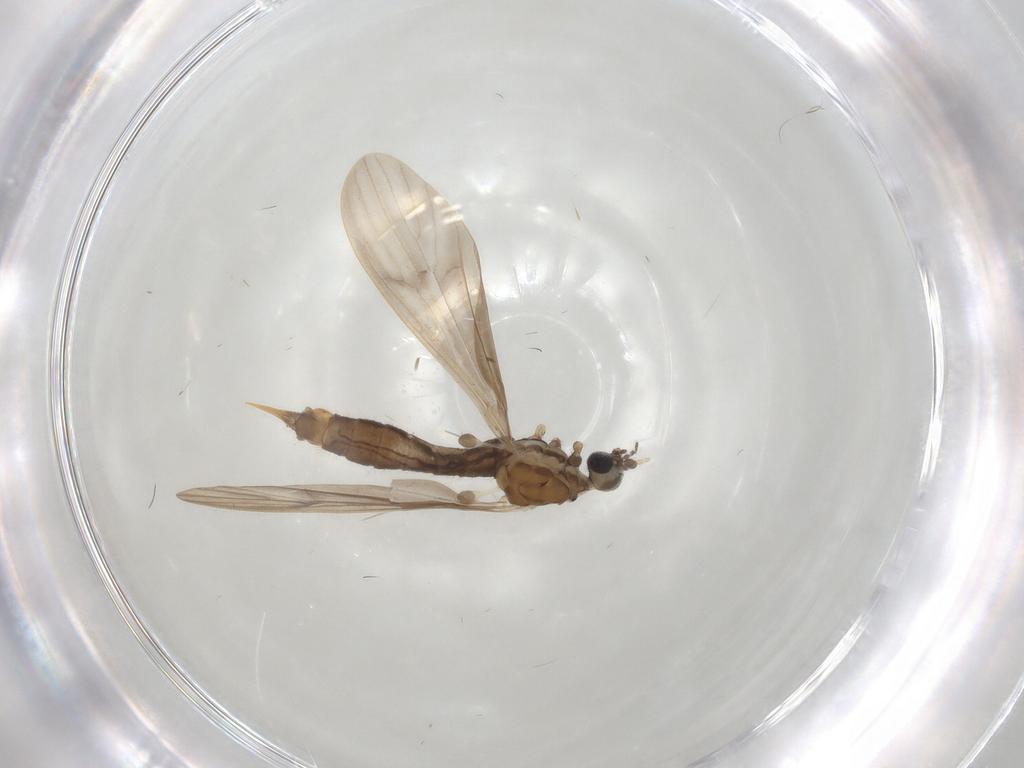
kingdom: Animalia
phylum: Arthropoda
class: Insecta
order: Diptera
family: Limoniidae
